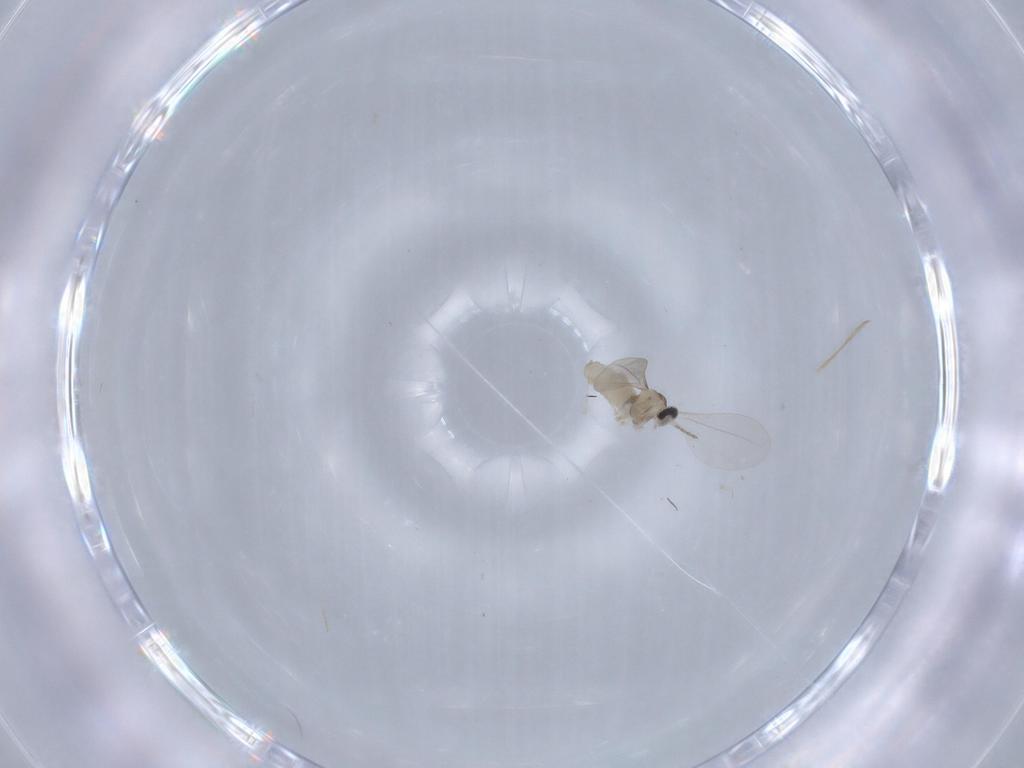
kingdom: Animalia
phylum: Arthropoda
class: Insecta
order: Diptera
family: Cecidomyiidae
